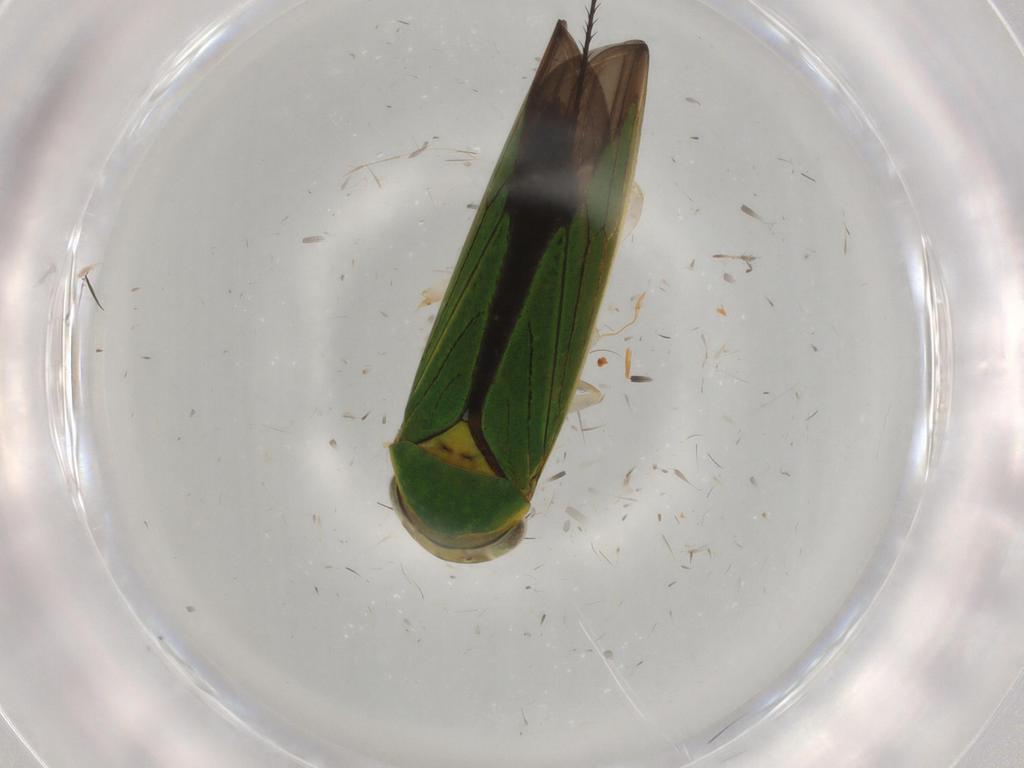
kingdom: Animalia
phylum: Arthropoda
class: Insecta
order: Hemiptera
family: Cicadellidae
